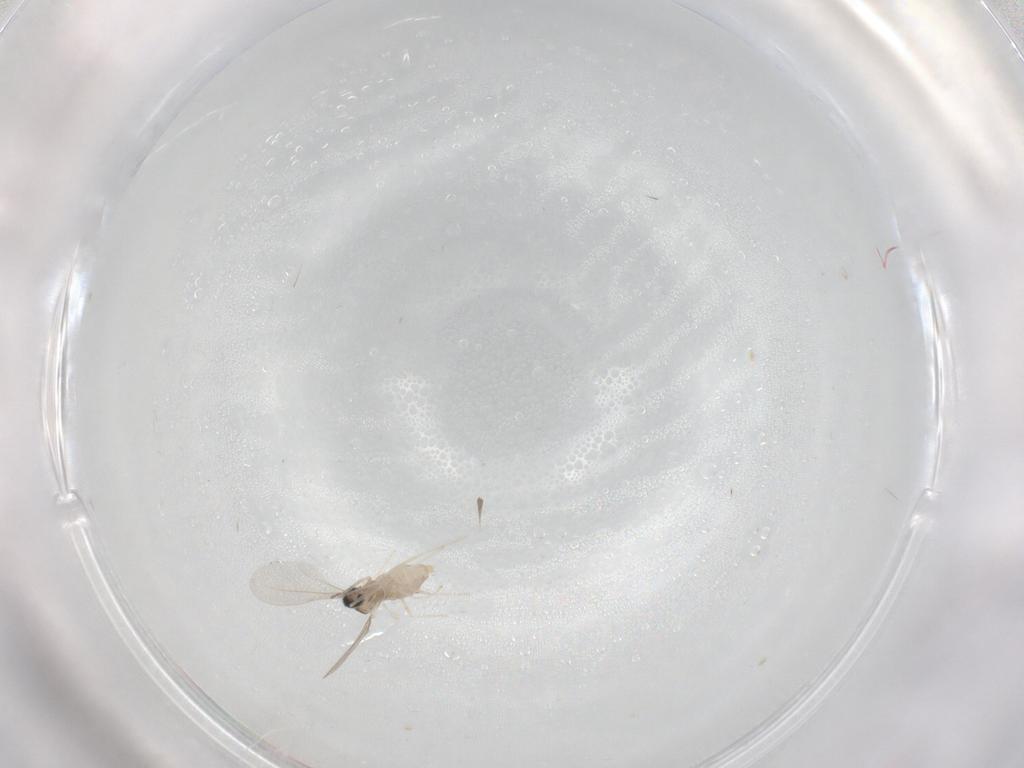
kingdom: Animalia
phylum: Arthropoda
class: Insecta
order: Diptera
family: Cecidomyiidae
